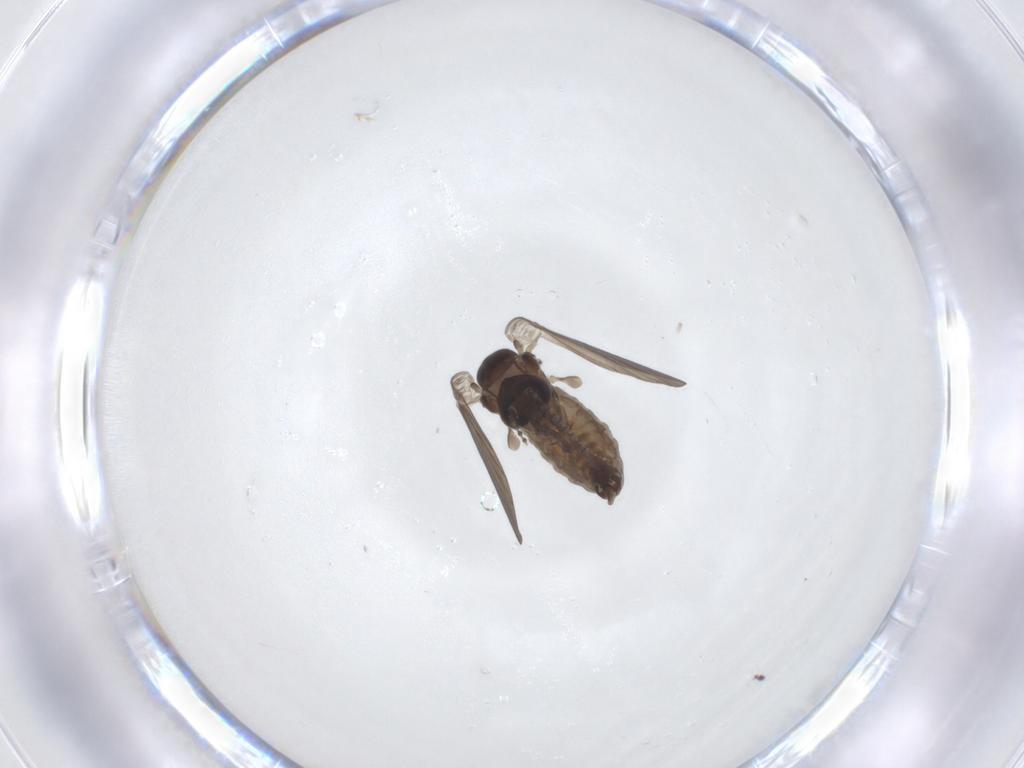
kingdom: Animalia
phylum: Arthropoda
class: Insecta
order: Diptera
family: Psychodidae
